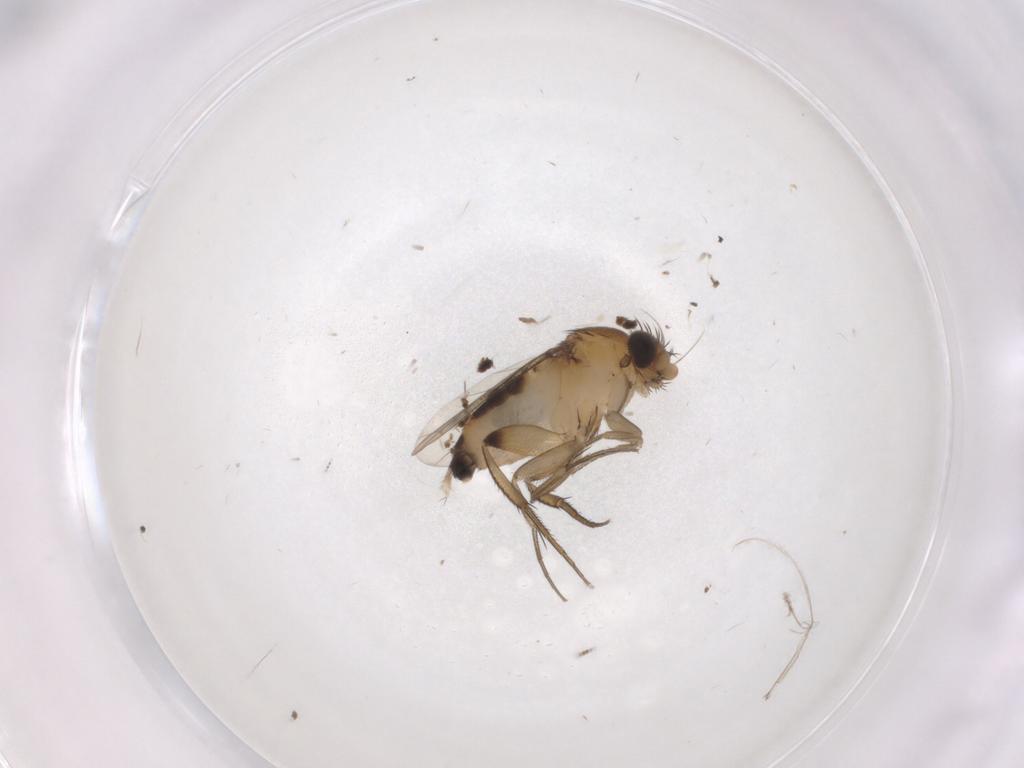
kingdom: Animalia
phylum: Arthropoda
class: Insecta
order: Diptera
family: Phoridae
